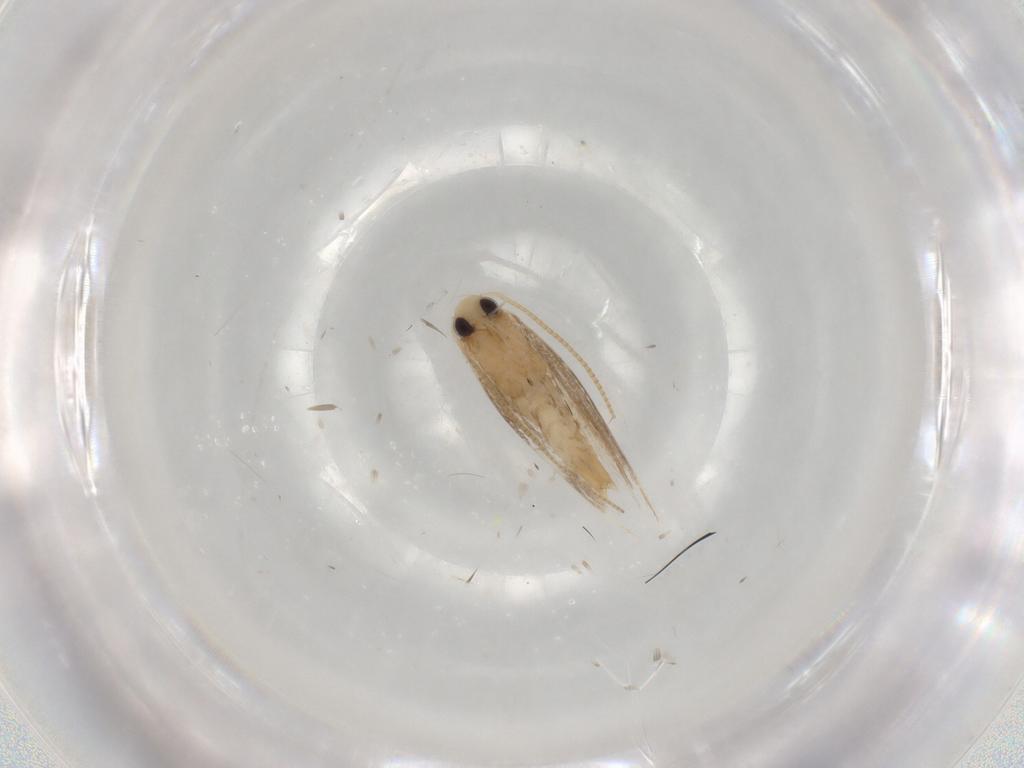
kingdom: Animalia
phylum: Arthropoda
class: Insecta
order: Lepidoptera
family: Gracillariidae
